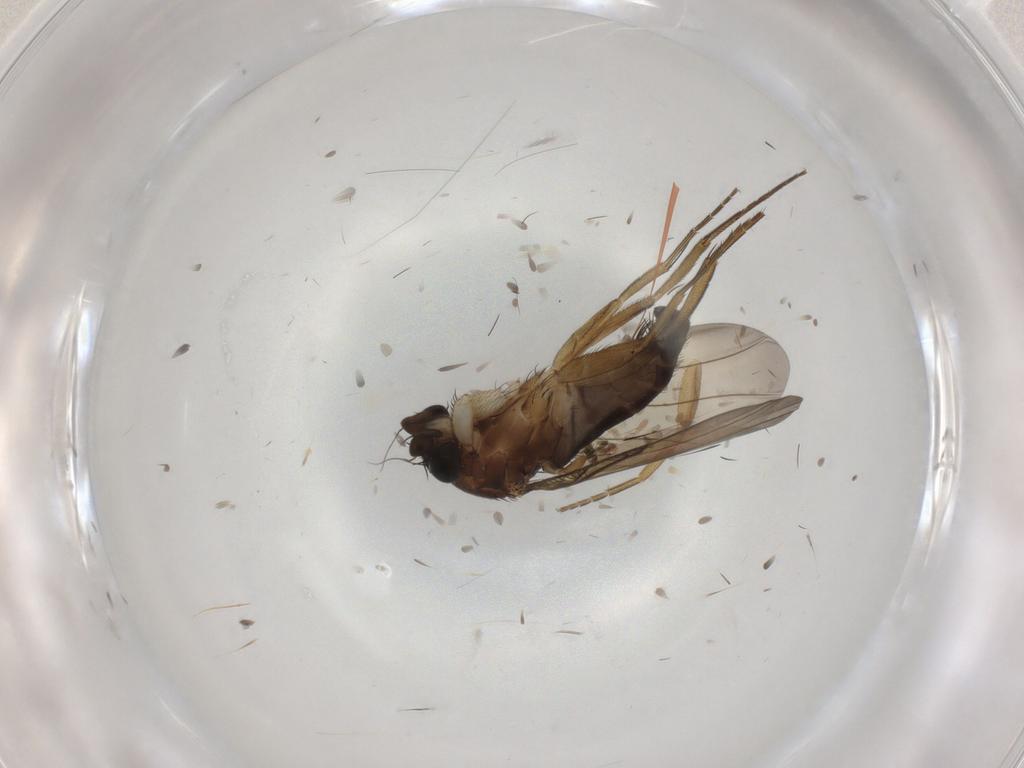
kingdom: Animalia
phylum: Arthropoda
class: Insecta
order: Diptera
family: Phoridae
